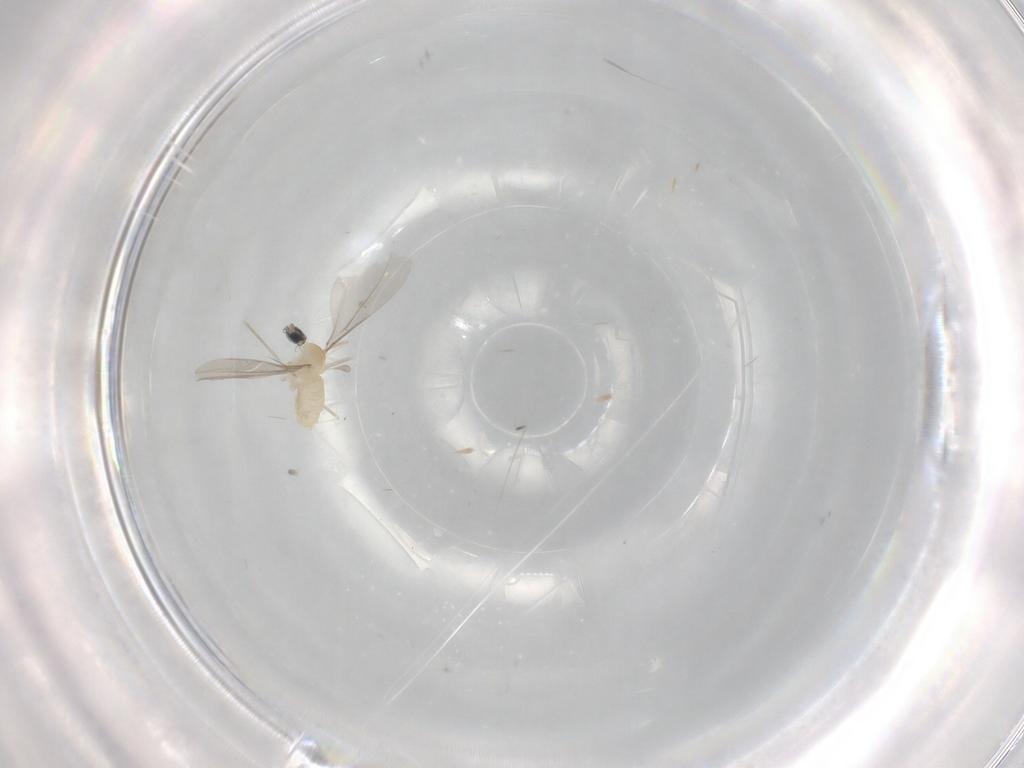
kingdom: Animalia
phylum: Arthropoda
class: Insecta
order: Diptera
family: Cecidomyiidae
